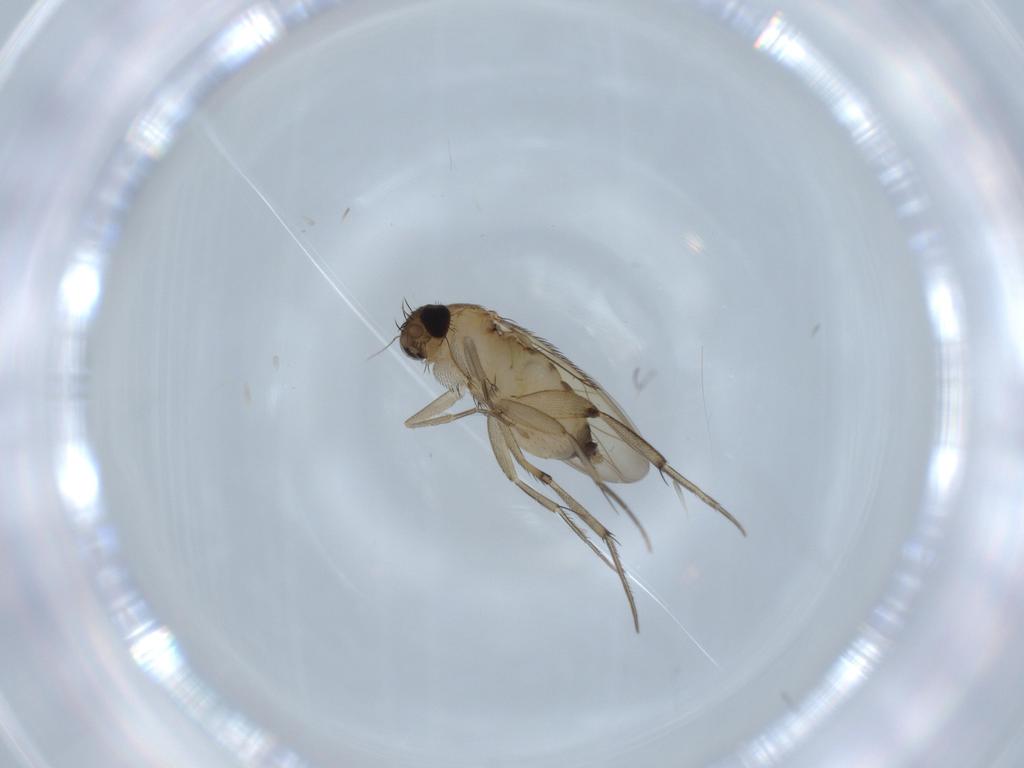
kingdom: Animalia
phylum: Arthropoda
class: Insecta
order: Diptera
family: Phoridae
